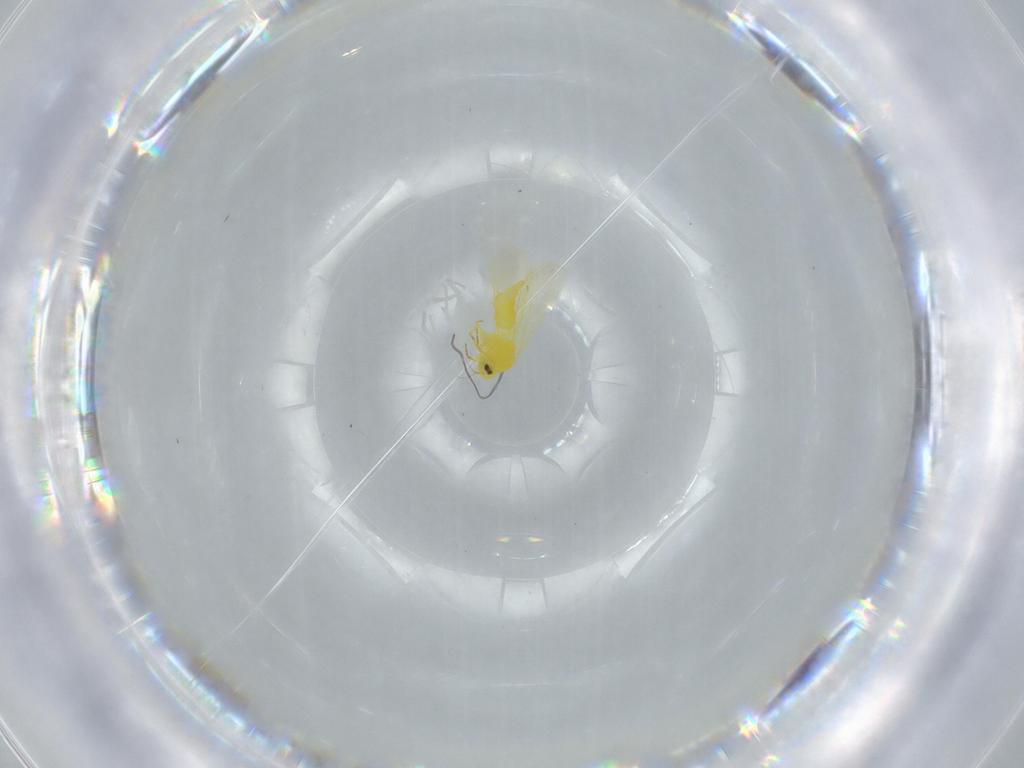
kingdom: Animalia
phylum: Arthropoda
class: Insecta
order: Hemiptera
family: Aleyrodidae
